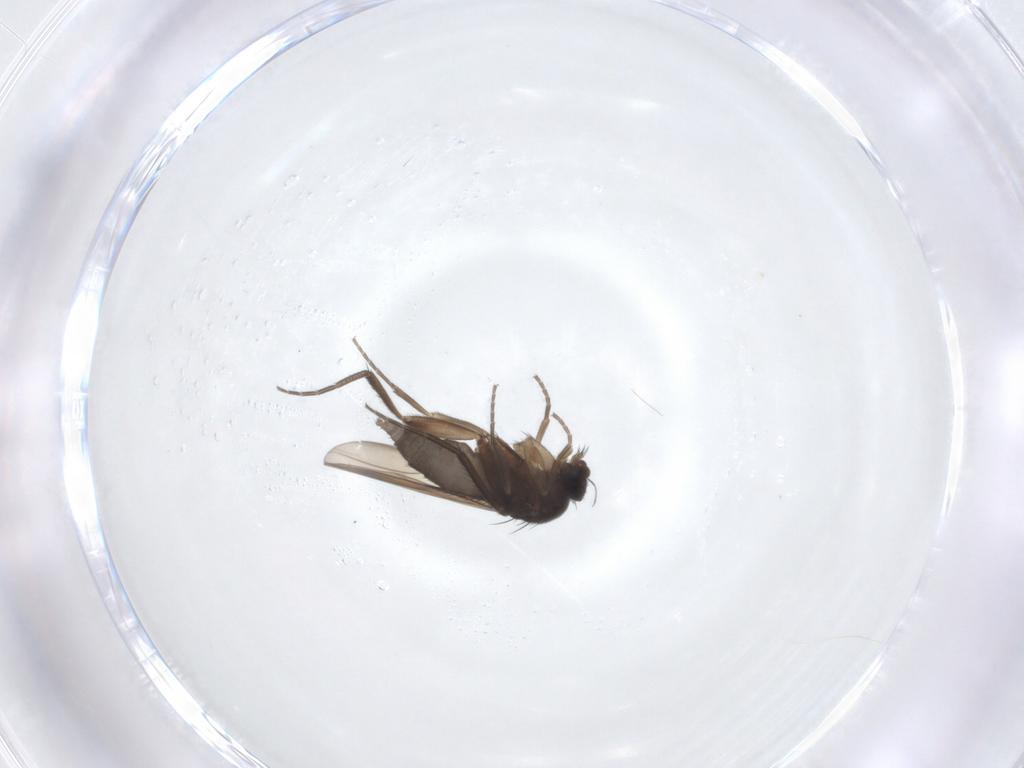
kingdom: Animalia
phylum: Arthropoda
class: Insecta
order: Diptera
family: Phoridae
